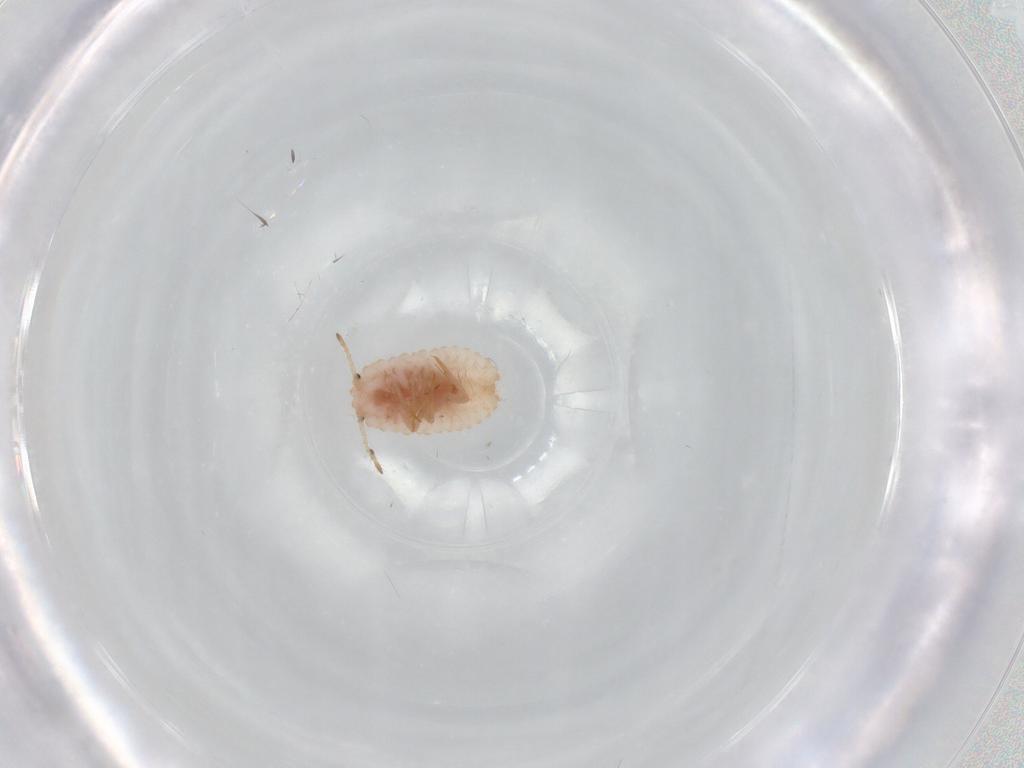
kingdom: Animalia
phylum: Arthropoda
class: Insecta
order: Hemiptera
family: Coccoidea_incertae_sedis
